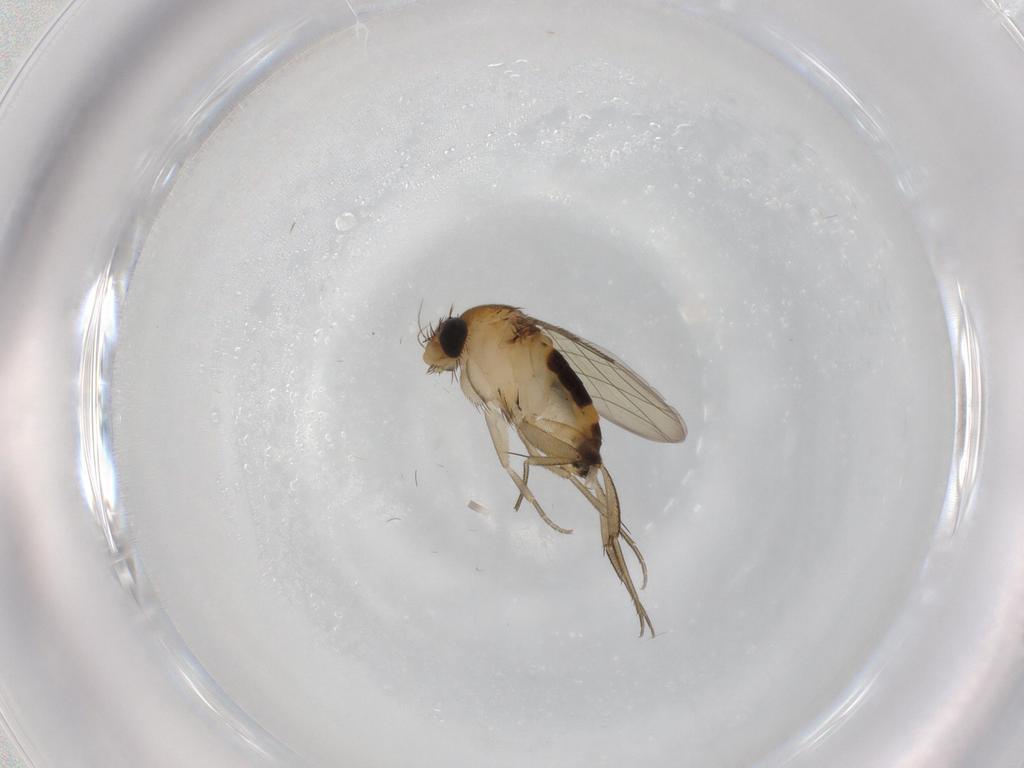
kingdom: Animalia
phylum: Arthropoda
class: Insecta
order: Diptera
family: Phoridae
